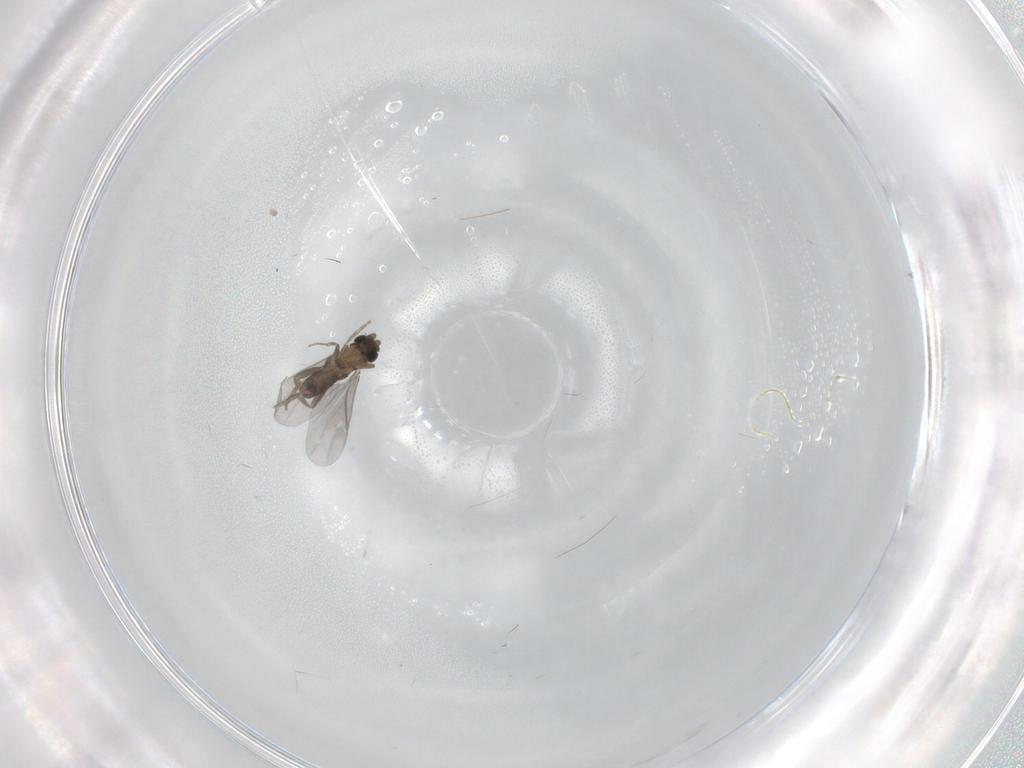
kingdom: Animalia
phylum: Arthropoda
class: Insecta
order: Diptera
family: Phoridae
